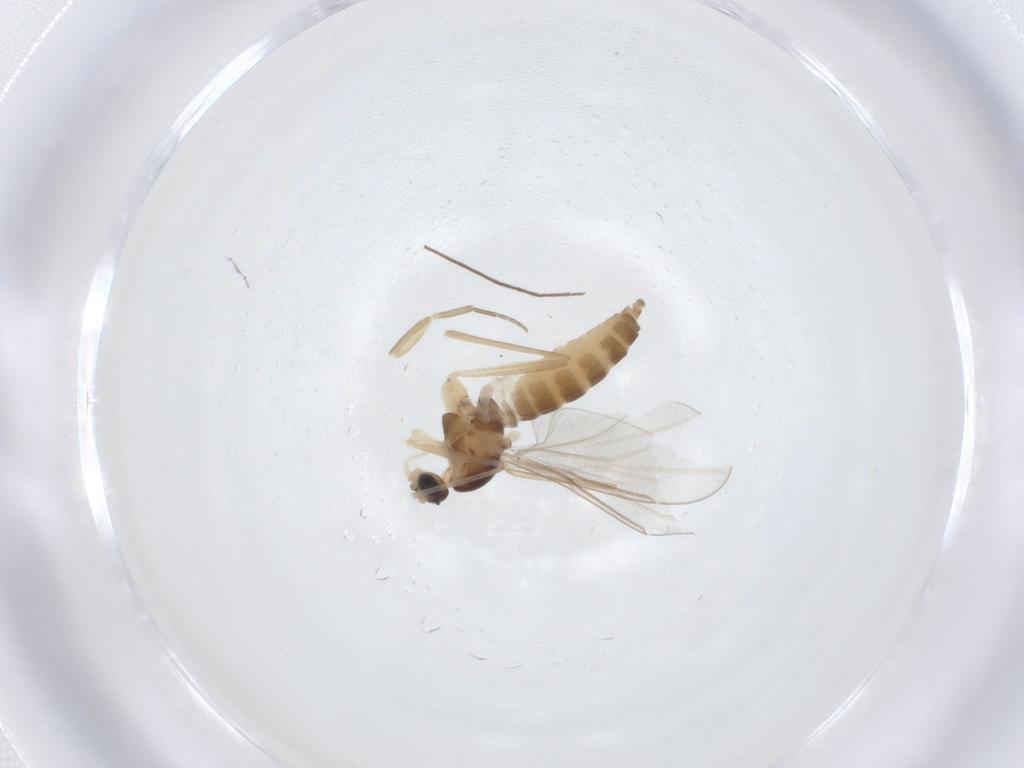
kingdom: Animalia
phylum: Arthropoda
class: Insecta
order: Diptera
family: Cecidomyiidae
